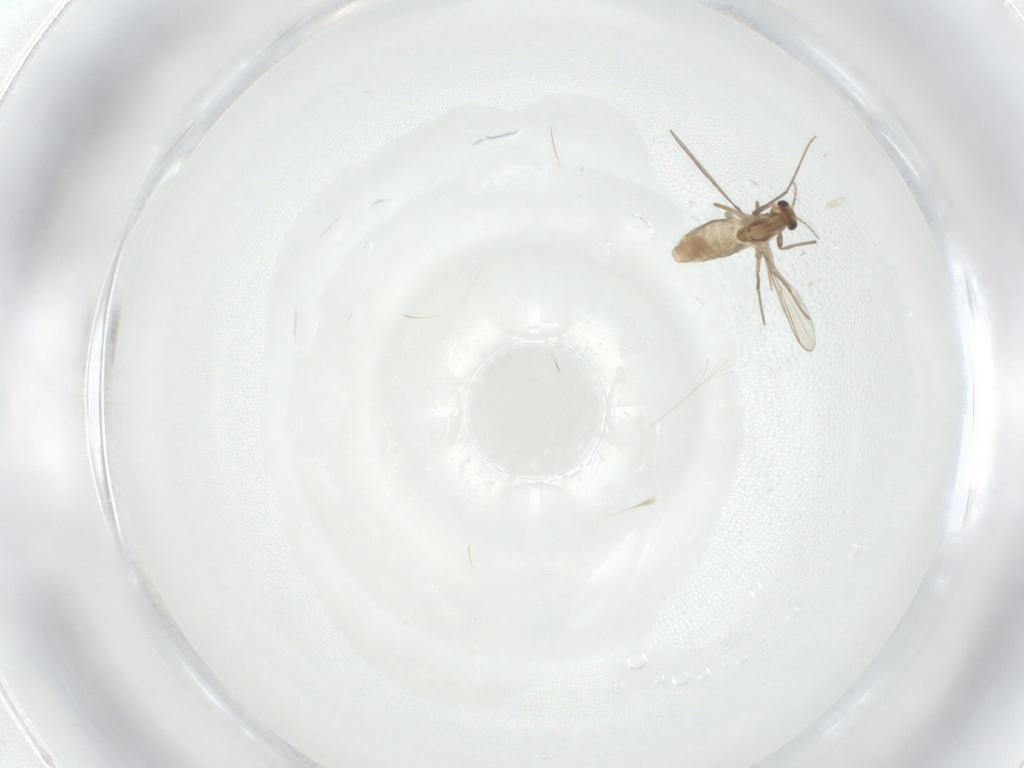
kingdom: Animalia
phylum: Arthropoda
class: Insecta
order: Diptera
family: Chironomidae
